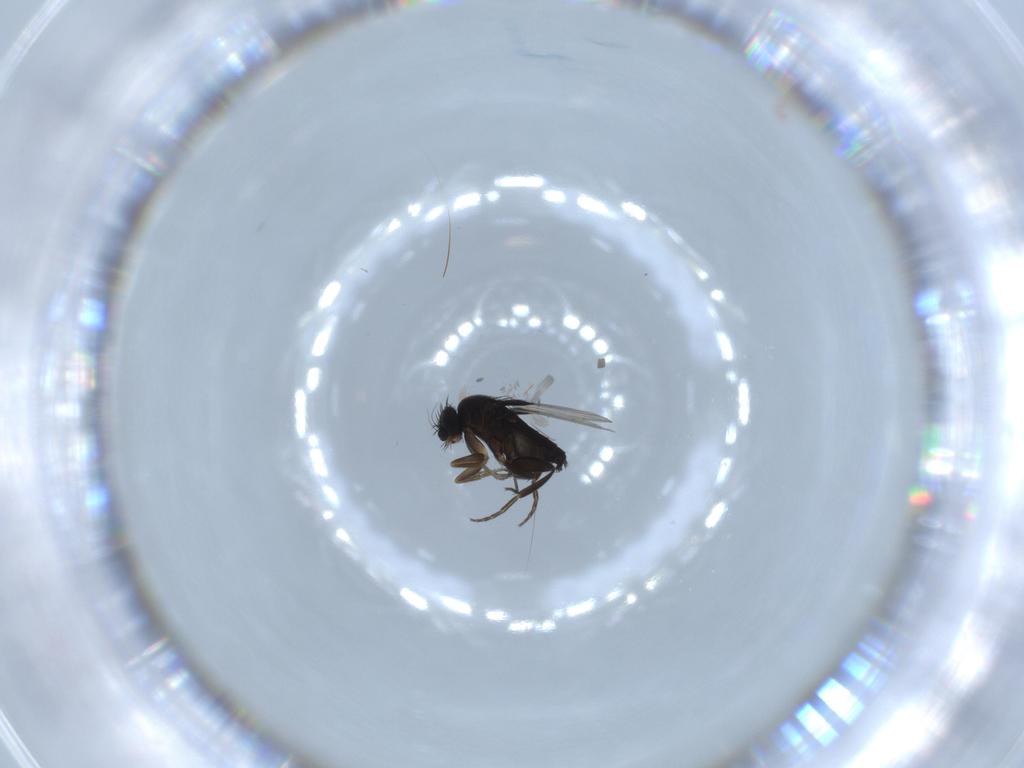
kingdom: Animalia
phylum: Arthropoda
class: Insecta
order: Diptera
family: Phoridae
